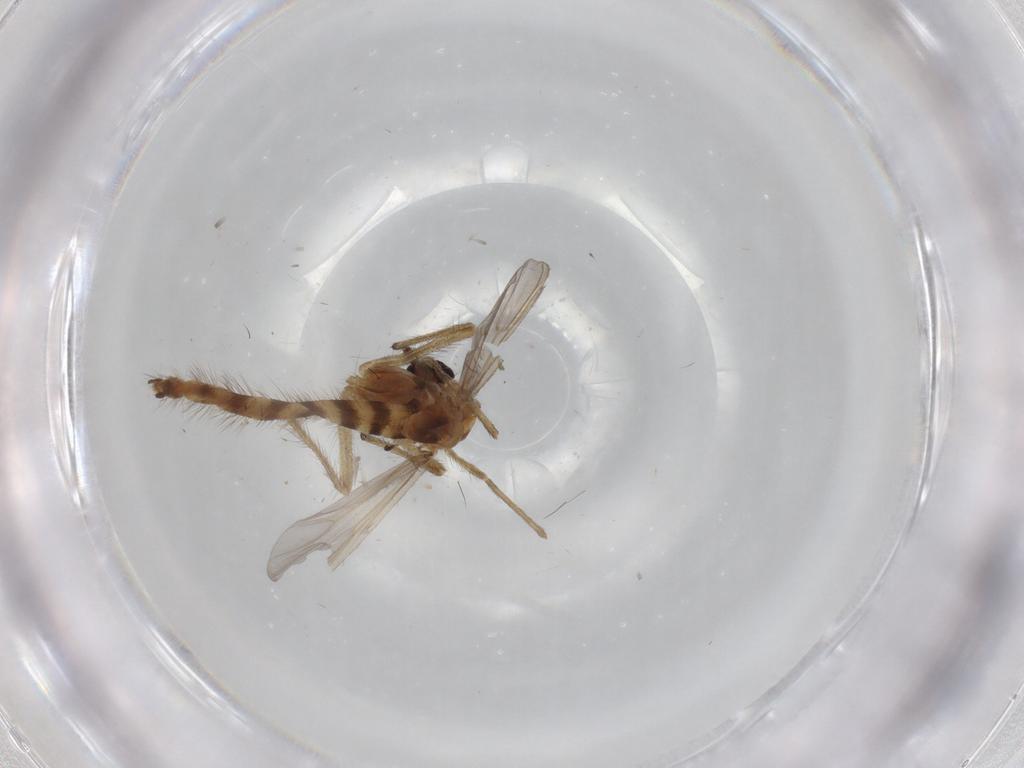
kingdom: Animalia
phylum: Arthropoda
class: Insecta
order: Diptera
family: Chironomidae
